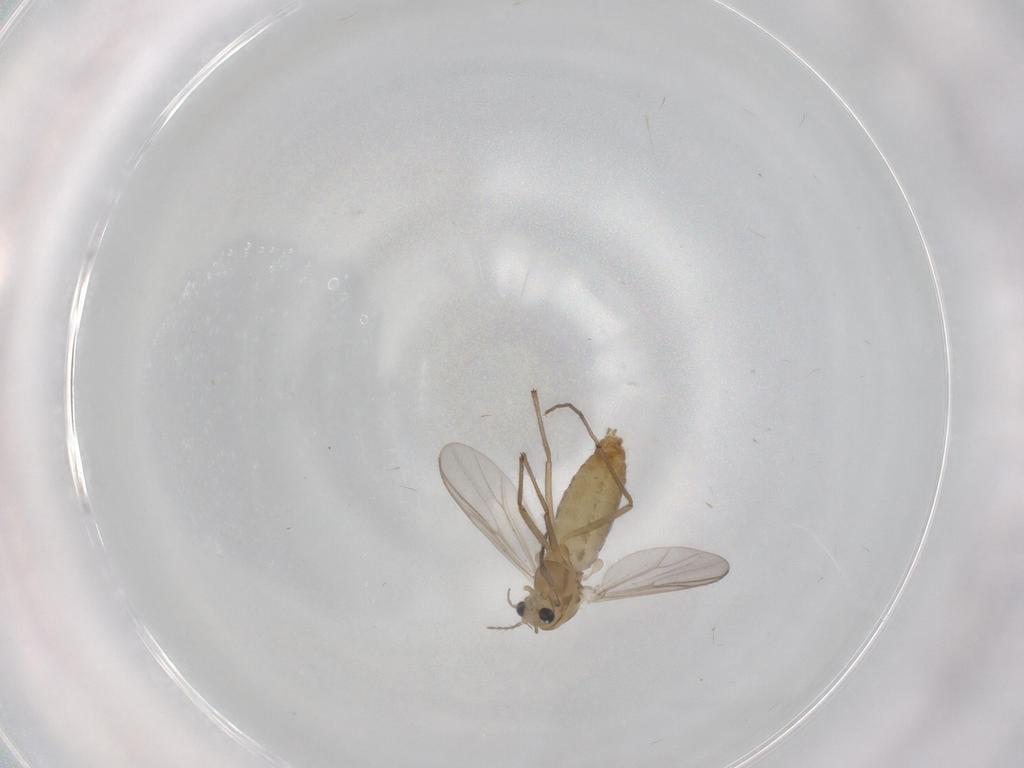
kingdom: Animalia
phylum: Arthropoda
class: Insecta
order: Diptera
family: Chironomidae
